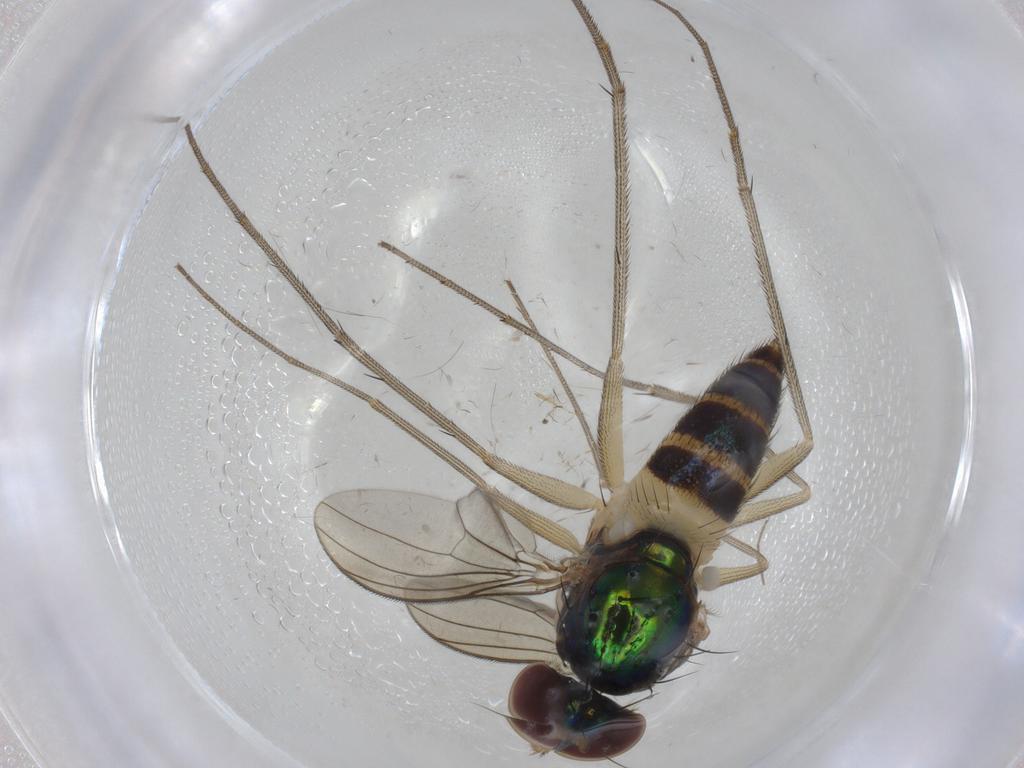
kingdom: Animalia
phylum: Arthropoda
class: Insecta
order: Diptera
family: Dolichopodidae
